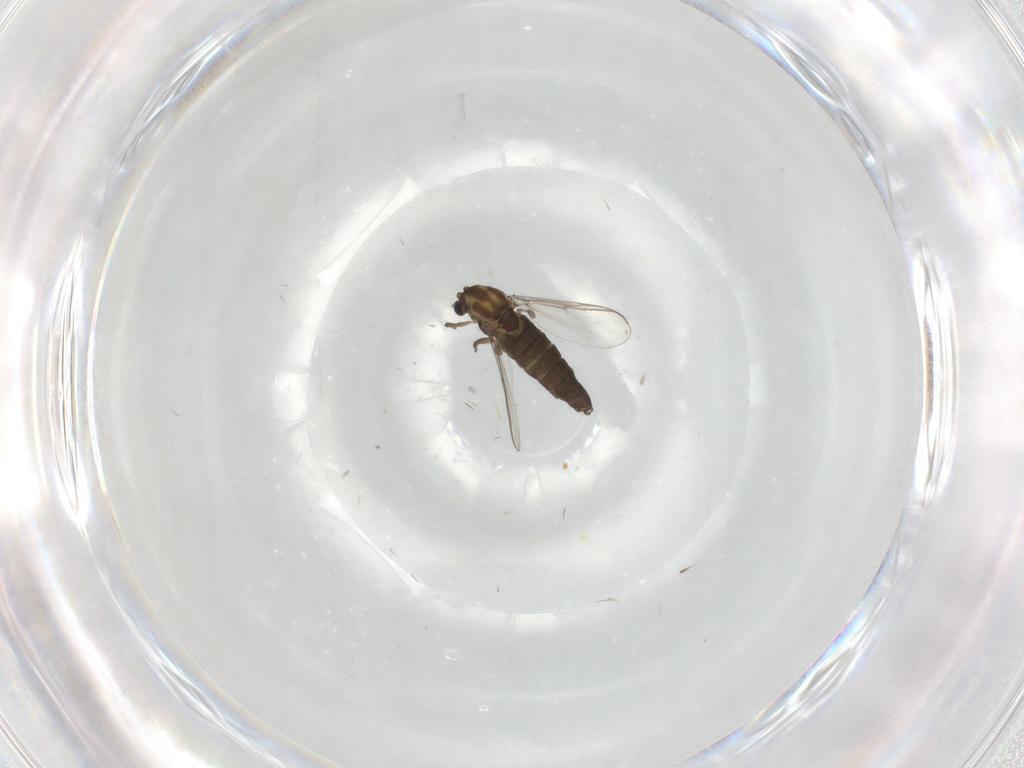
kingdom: Animalia
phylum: Arthropoda
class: Insecta
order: Diptera
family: Chironomidae
